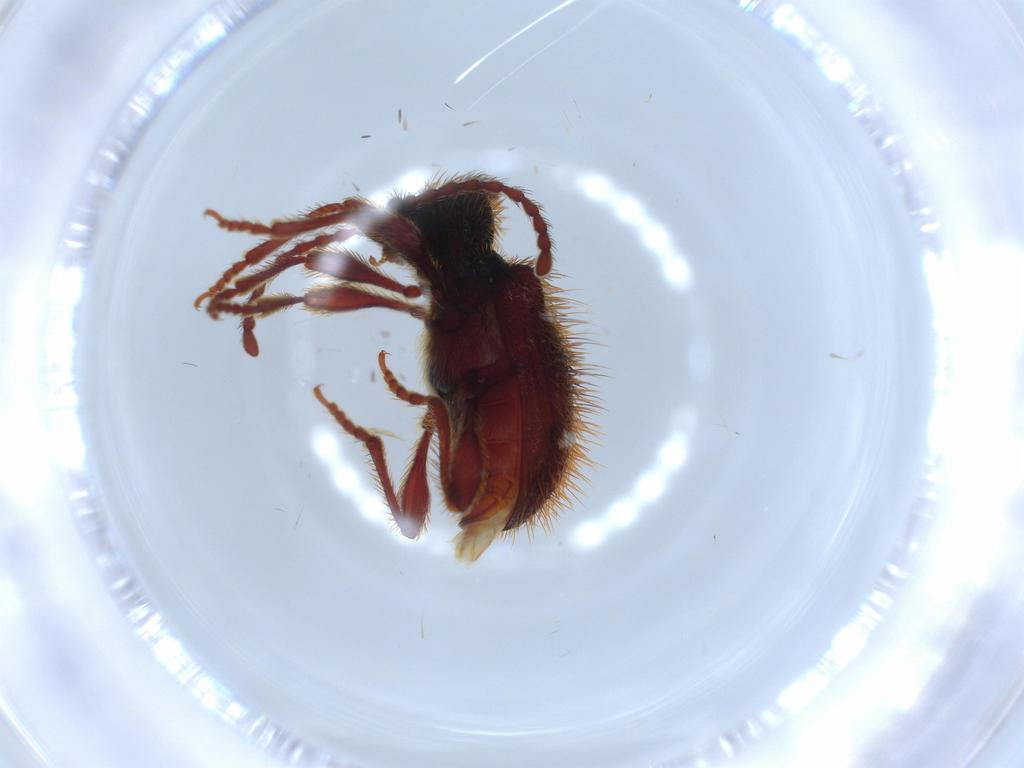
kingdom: Animalia
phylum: Arthropoda
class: Insecta
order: Coleoptera
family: Ptinidae
